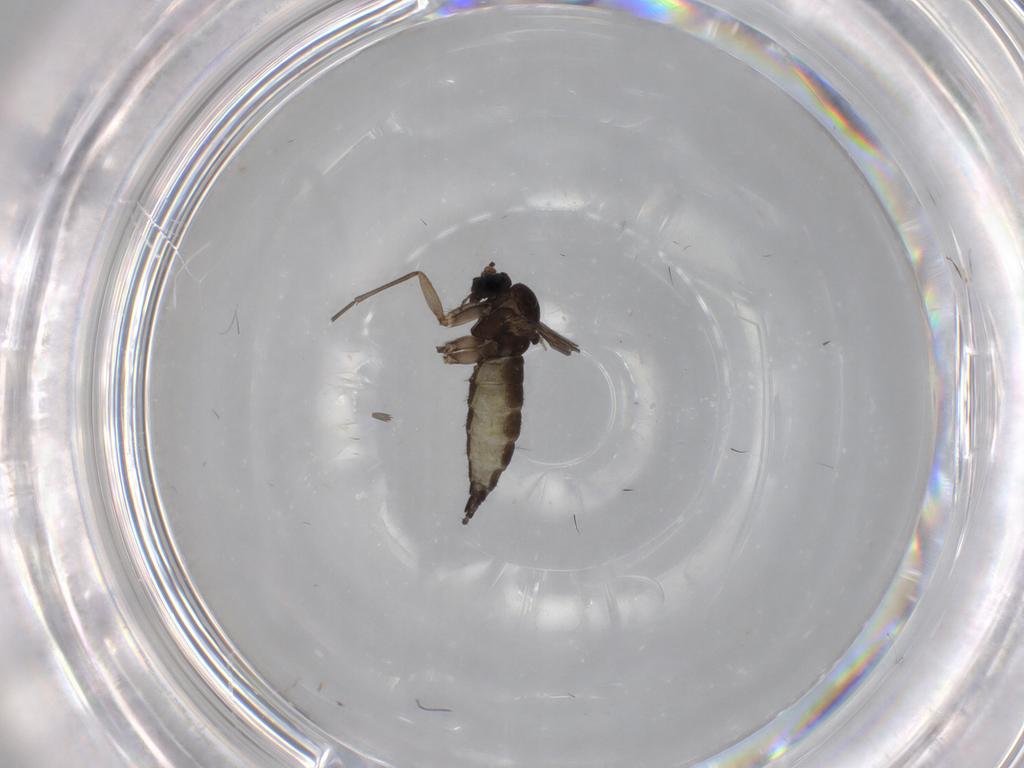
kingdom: Animalia
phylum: Arthropoda
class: Insecta
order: Diptera
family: Sciaridae
